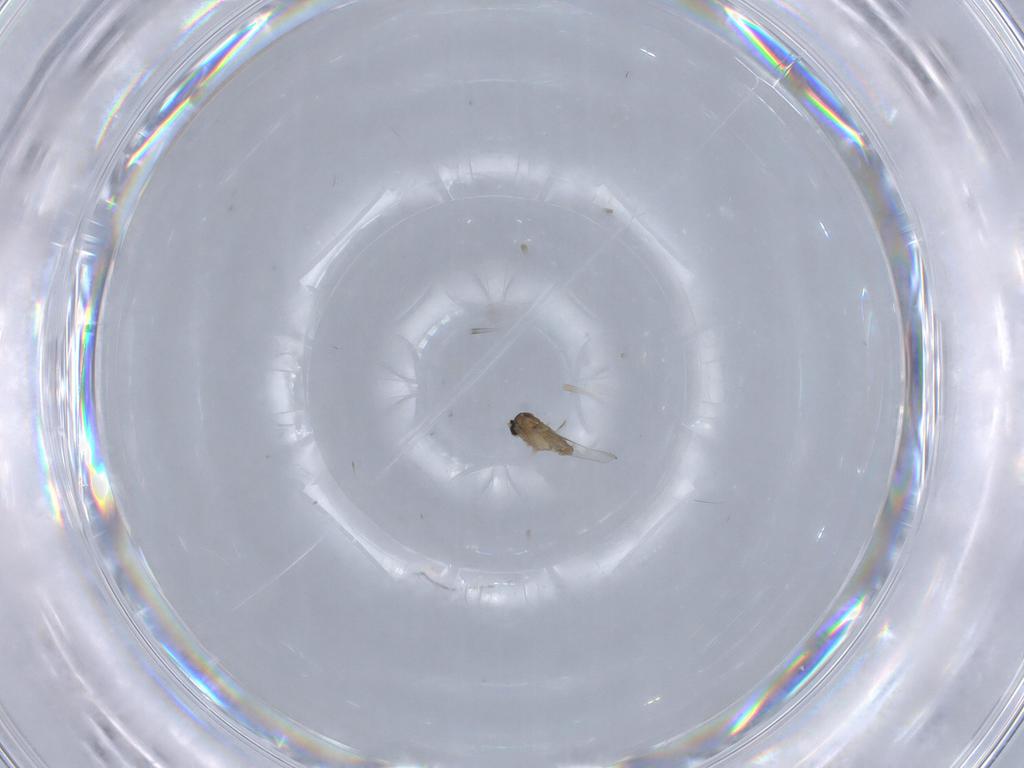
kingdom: Animalia
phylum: Arthropoda
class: Insecta
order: Diptera
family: Cecidomyiidae
